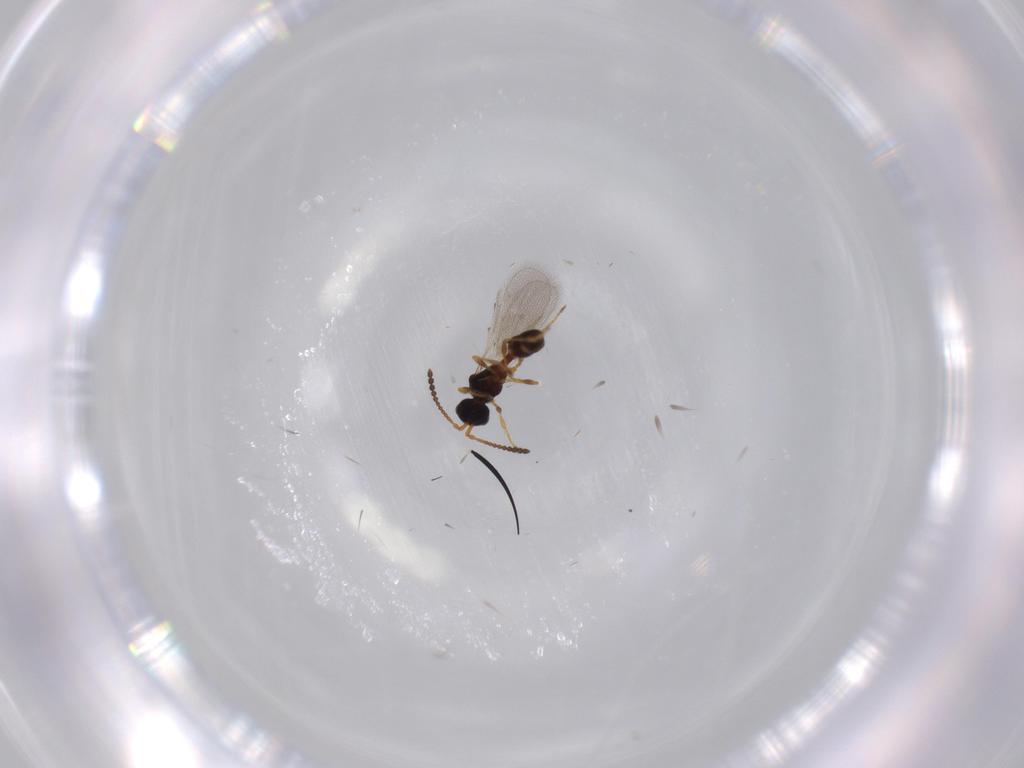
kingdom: Animalia
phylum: Arthropoda
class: Insecta
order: Hymenoptera
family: Diapriidae
